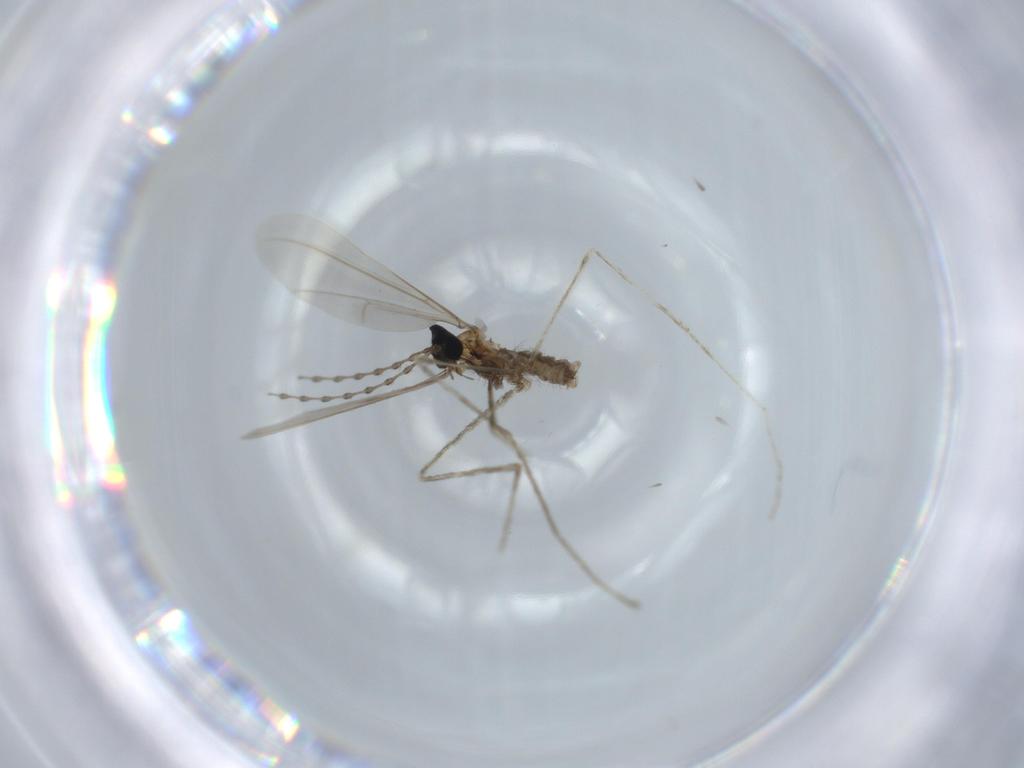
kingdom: Animalia
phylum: Arthropoda
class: Insecta
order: Diptera
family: Cecidomyiidae
